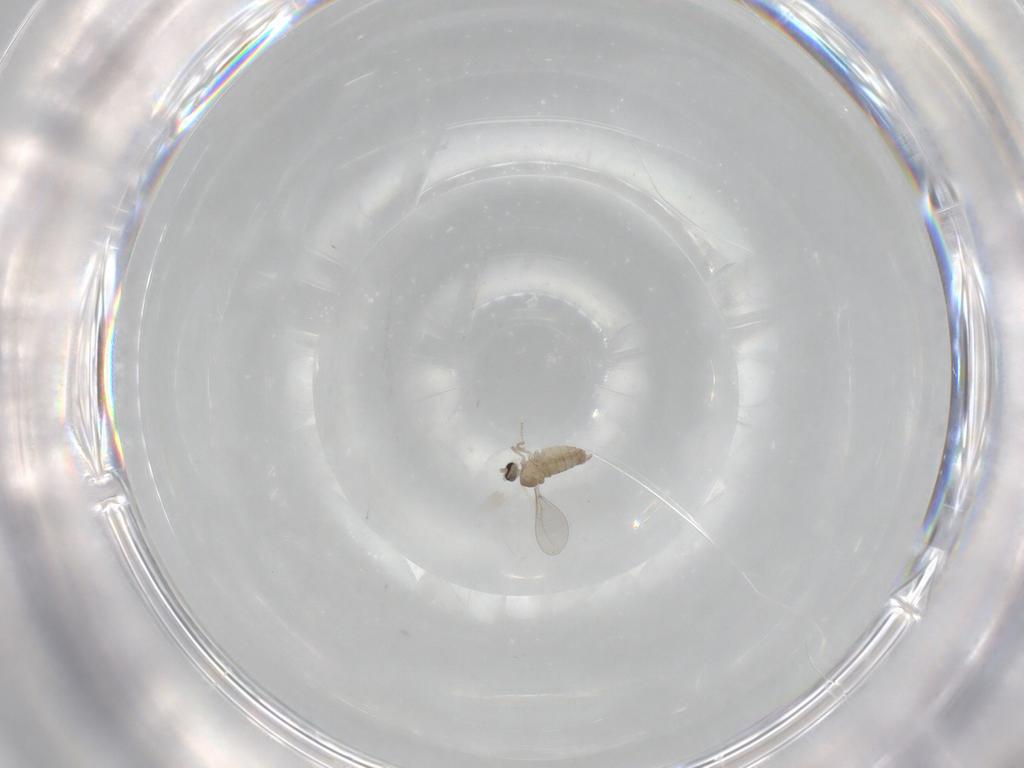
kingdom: Animalia
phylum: Arthropoda
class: Insecta
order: Diptera
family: Cecidomyiidae
